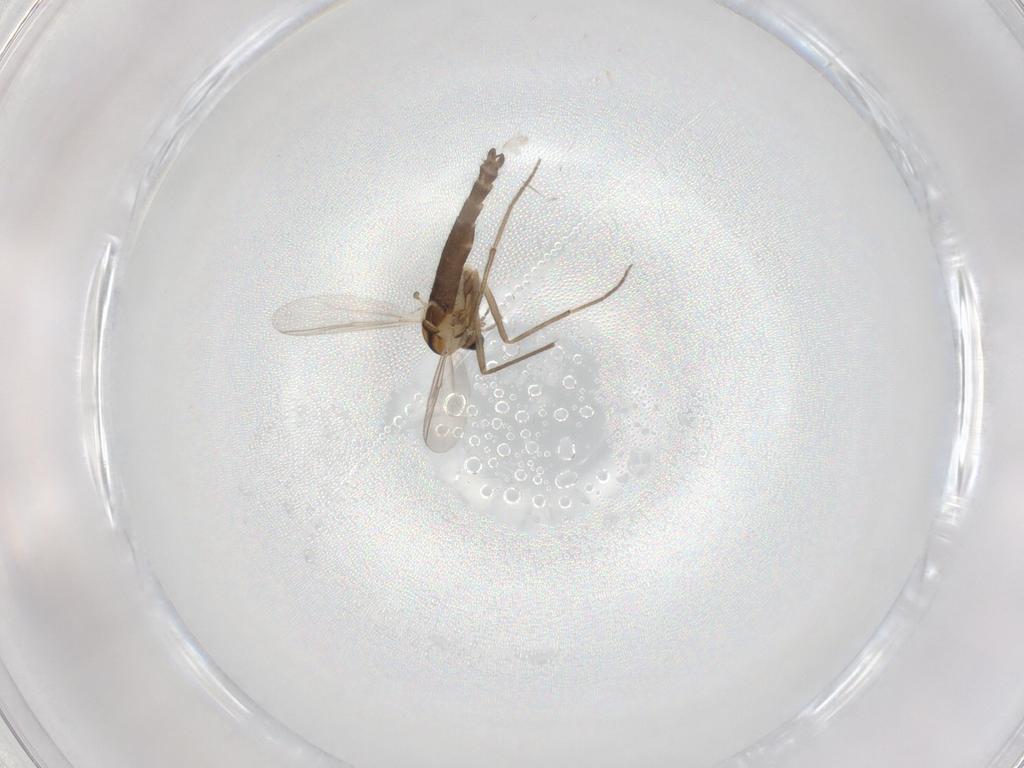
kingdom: Animalia
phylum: Arthropoda
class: Insecta
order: Diptera
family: Chironomidae
